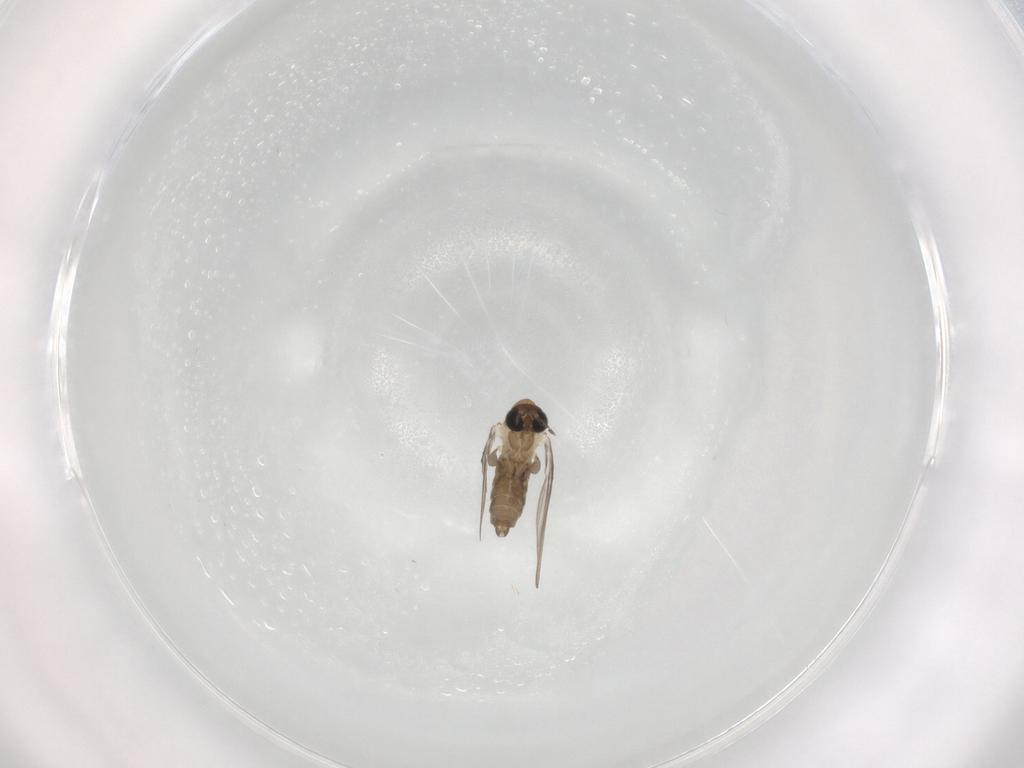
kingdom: Animalia
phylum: Arthropoda
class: Insecta
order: Diptera
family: Psychodidae
